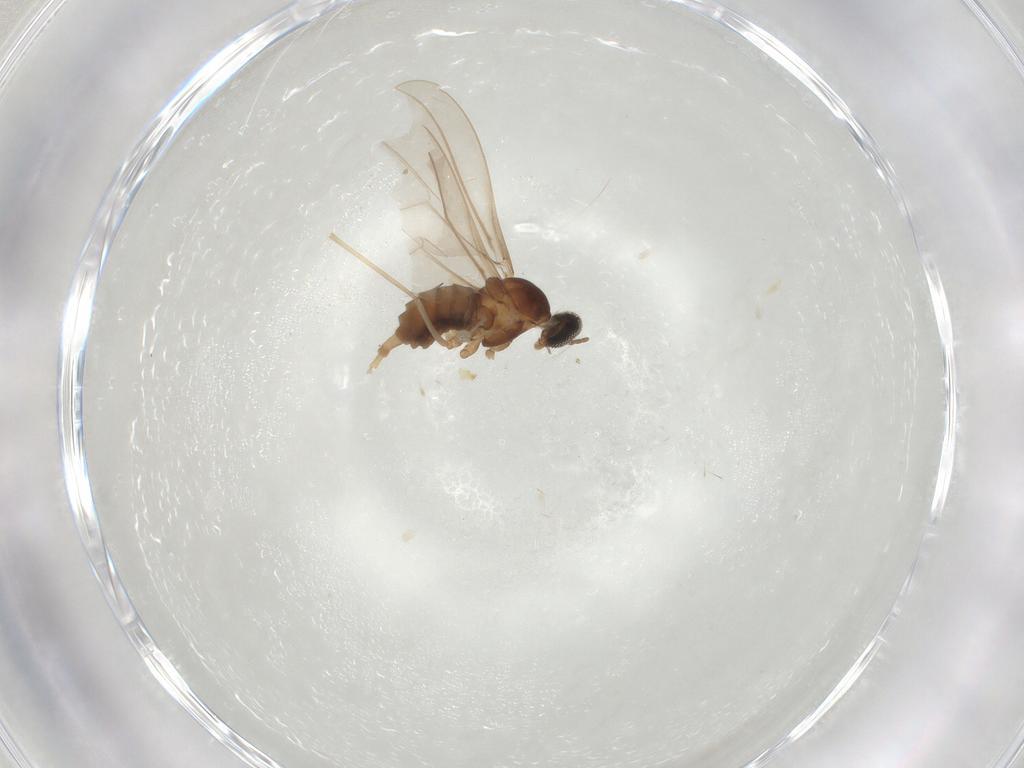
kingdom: Animalia
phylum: Arthropoda
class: Insecta
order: Diptera
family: Cecidomyiidae
